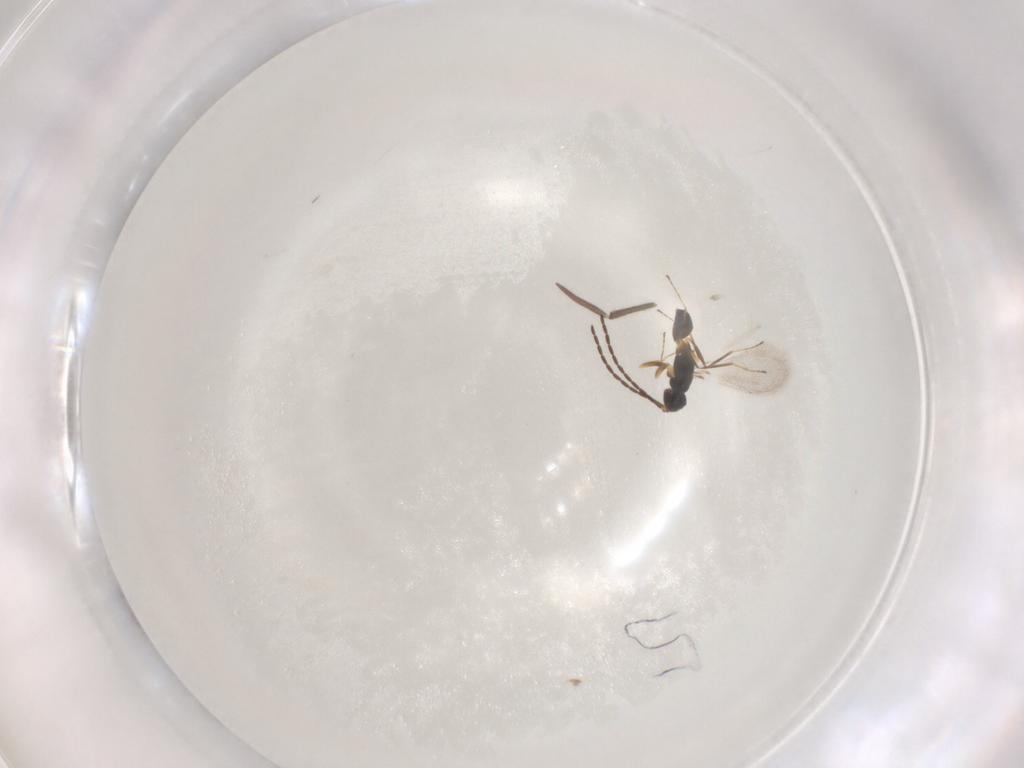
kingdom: Animalia
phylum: Arthropoda
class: Insecta
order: Hymenoptera
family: Mymaridae
